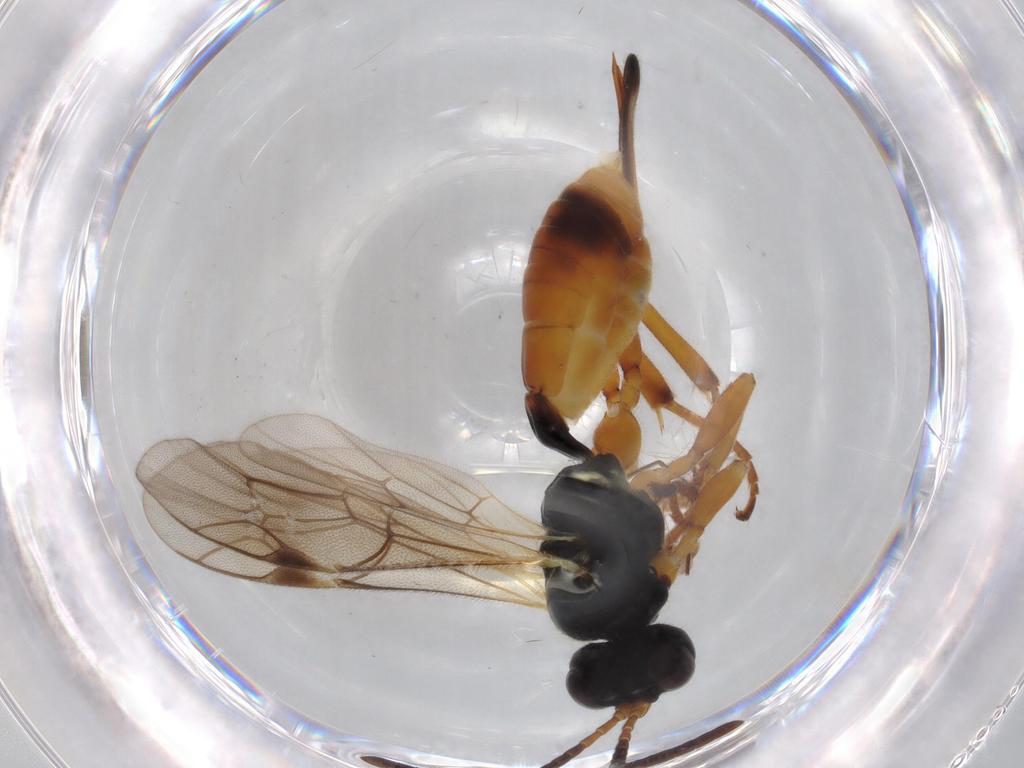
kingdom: Animalia
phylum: Arthropoda
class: Insecta
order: Hymenoptera
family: Ichneumonidae
